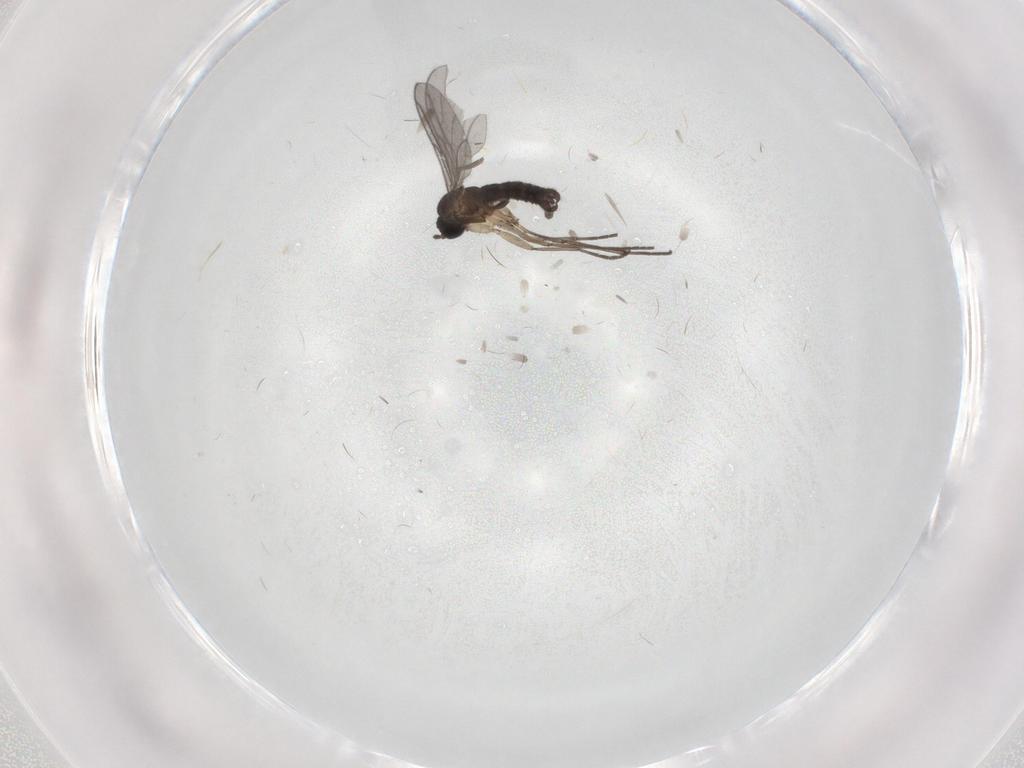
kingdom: Animalia
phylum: Arthropoda
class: Insecta
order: Diptera
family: Sciaridae
